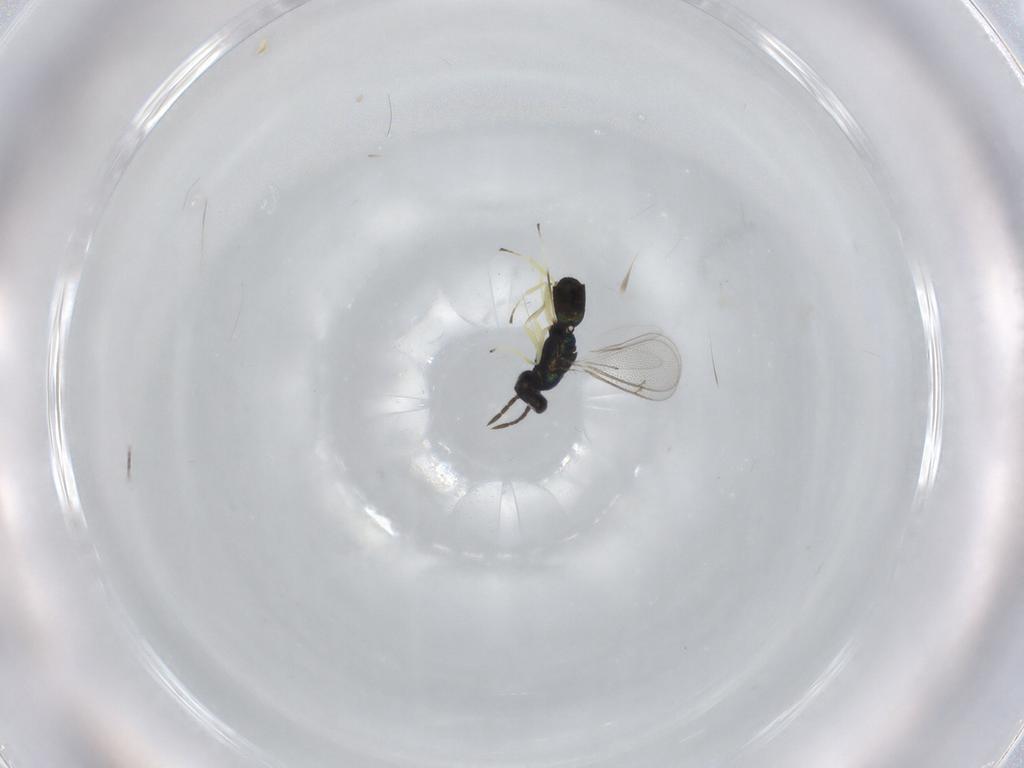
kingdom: Animalia
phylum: Arthropoda
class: Insecta
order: Hymenoptera
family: Eulophidae
